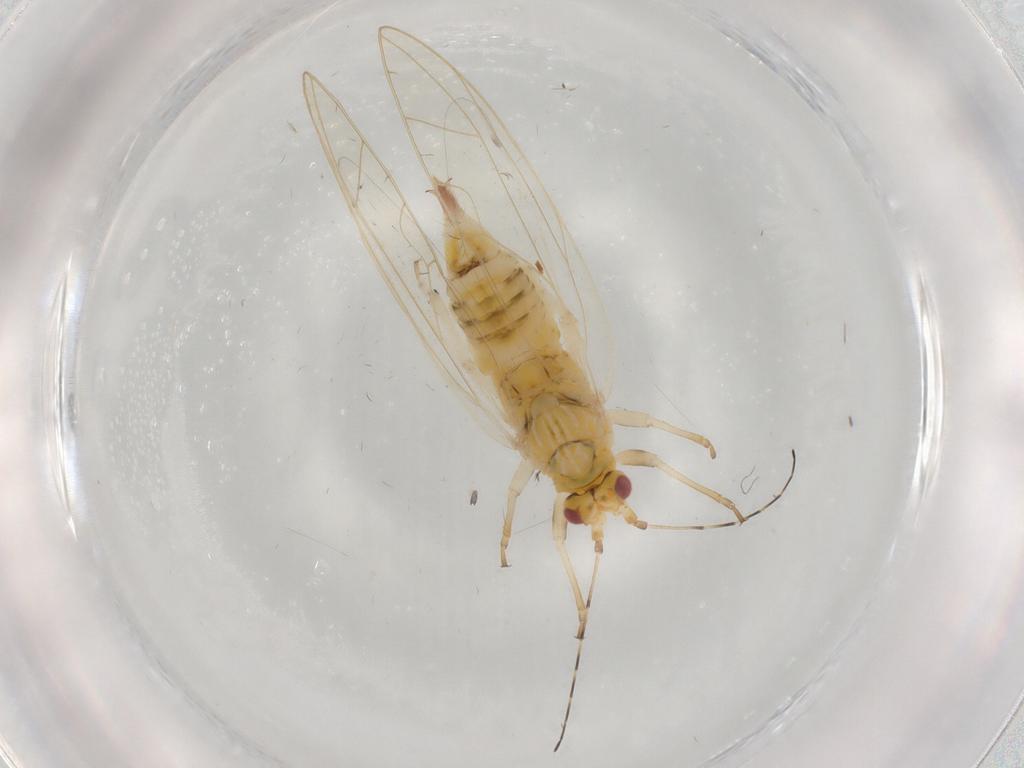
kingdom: Animalia
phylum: Arthropoda
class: Insecta
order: Hemiptera
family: Carsidaridae
